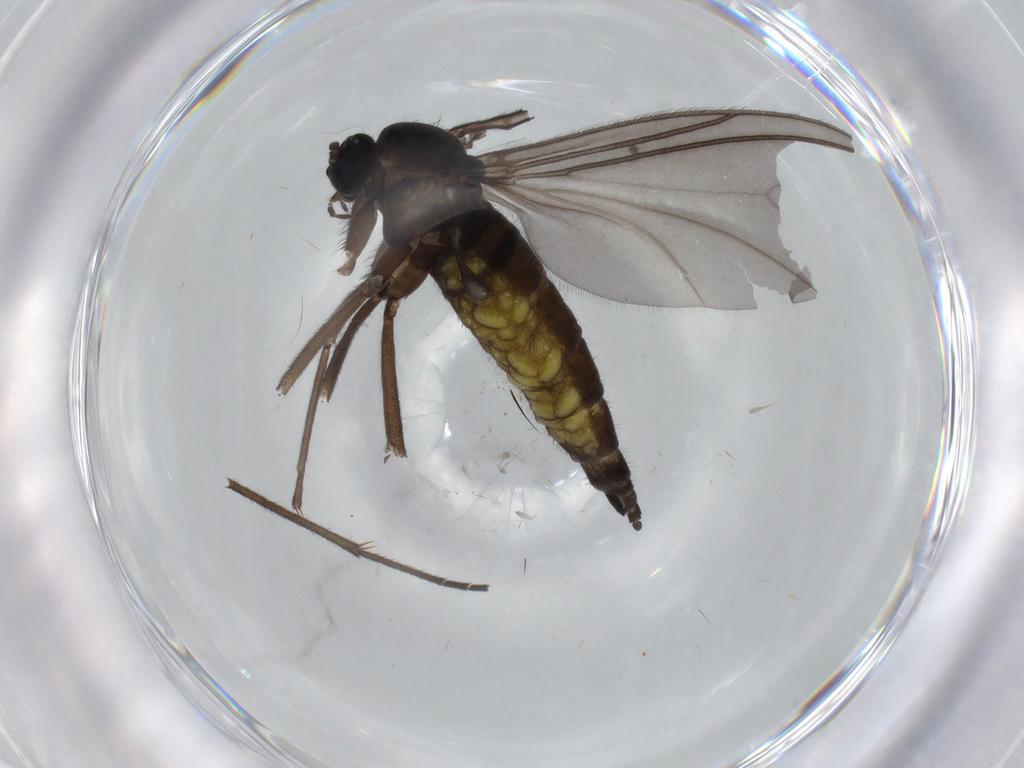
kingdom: Animalia
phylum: Arthropoda
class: Insecta
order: Diptera
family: Sciaridae
